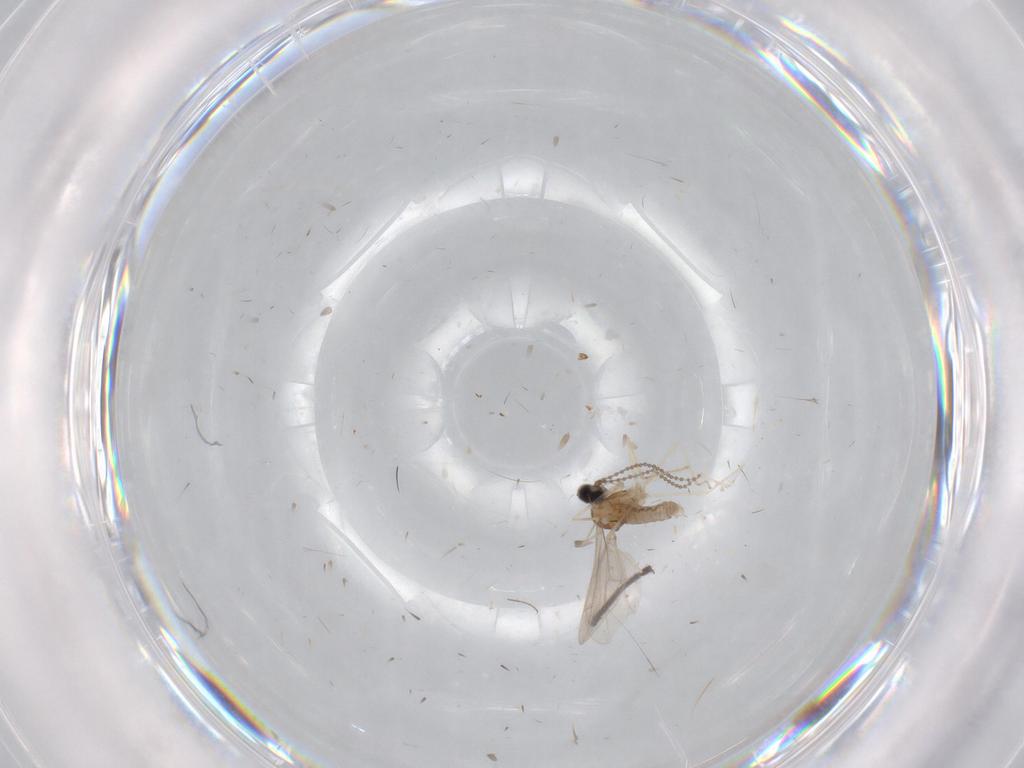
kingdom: Animalia
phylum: Arthropoda
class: Insecta
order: Diptera
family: Cecidomyiidae
